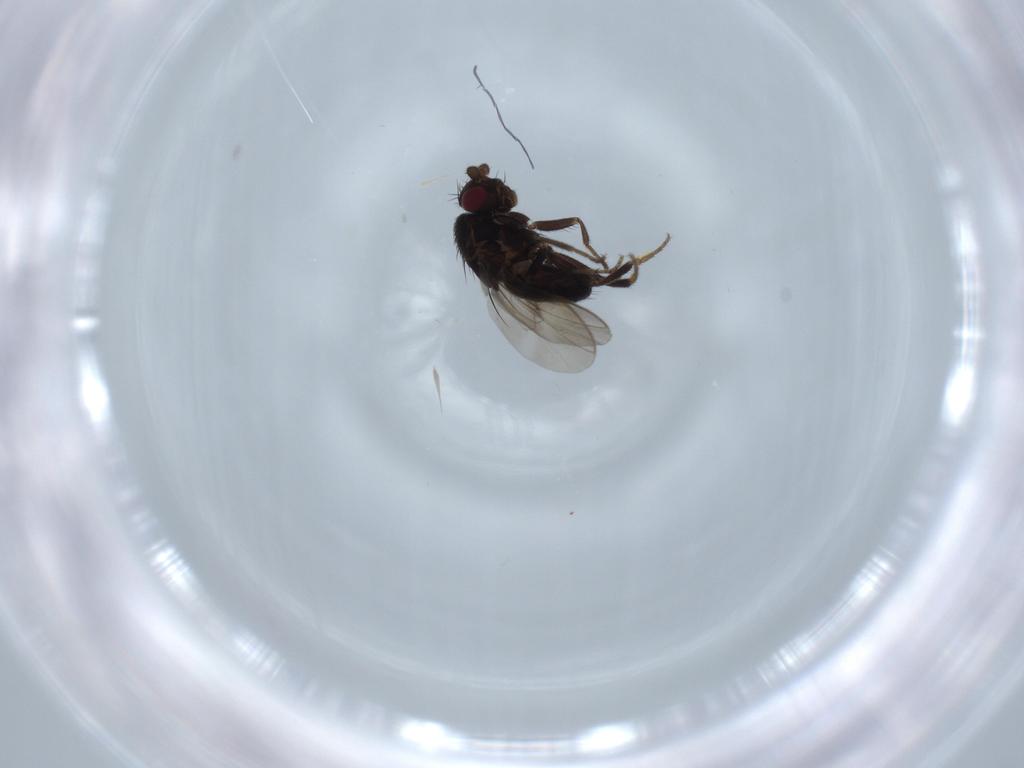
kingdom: Animalia
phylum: Arthropoda
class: Insecta
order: Diptera
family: Sphaeroceridae
